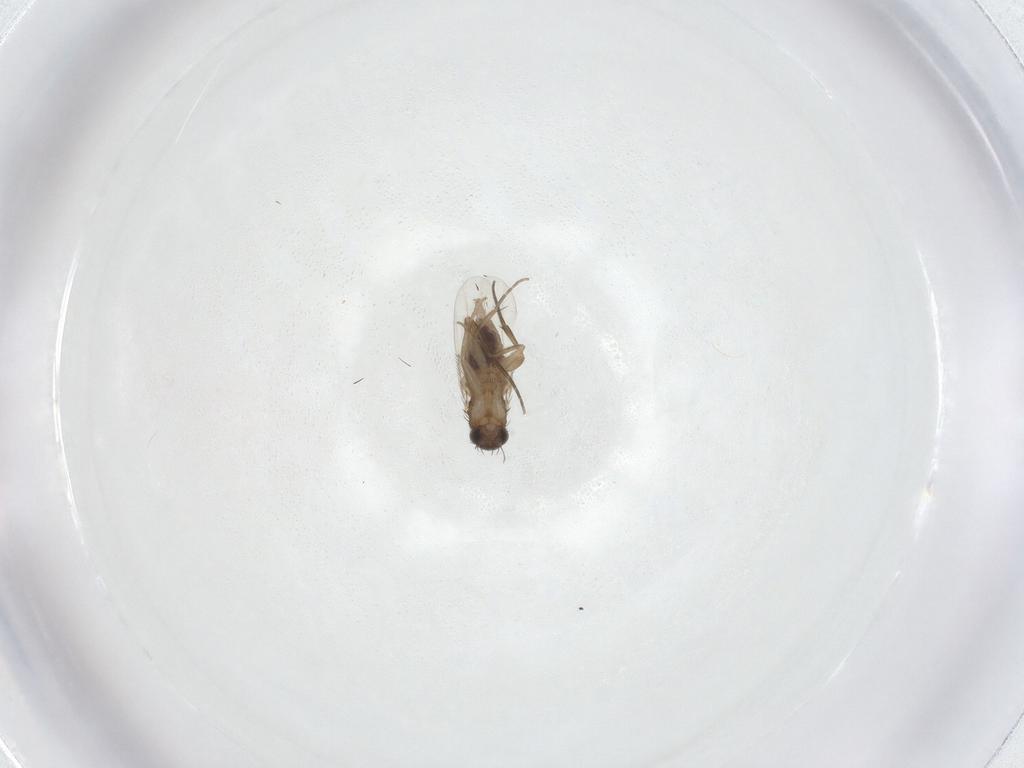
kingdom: Animalia
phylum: Arthropoda
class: Insecta
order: Diptera
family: Phoridae
